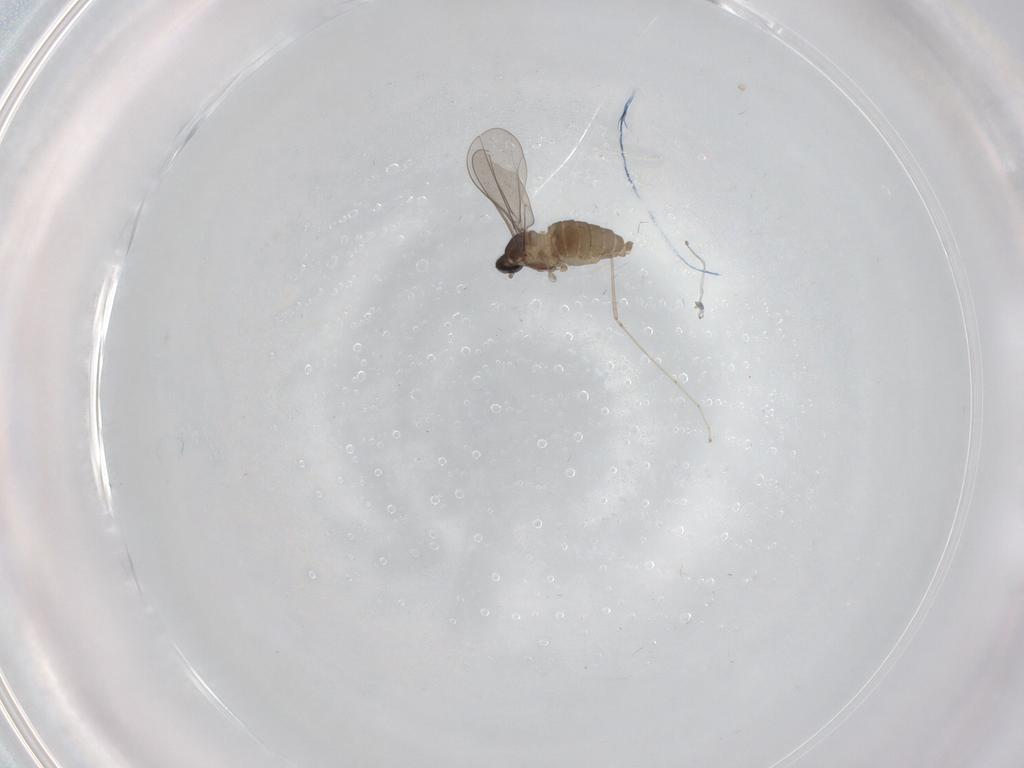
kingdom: Animalia
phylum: Arthropoda
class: Insecta
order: Diptera
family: Cecidomyiidae
